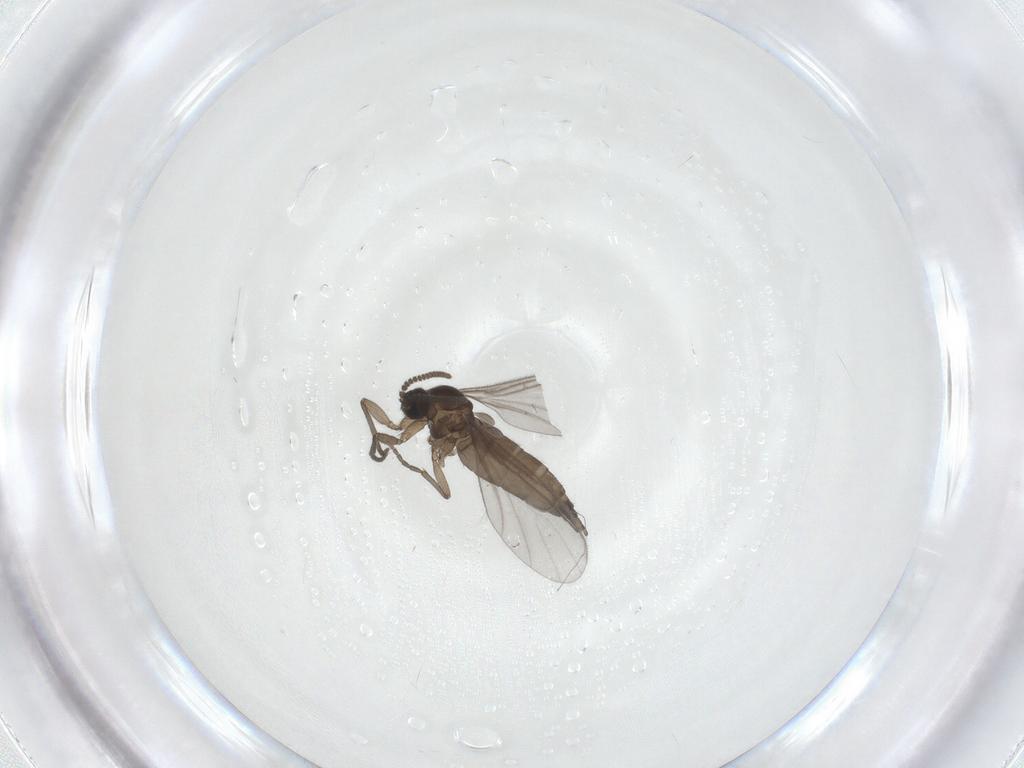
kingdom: Animalia
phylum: Arthropoda
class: Insecta
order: Diptera
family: Sciaridae
